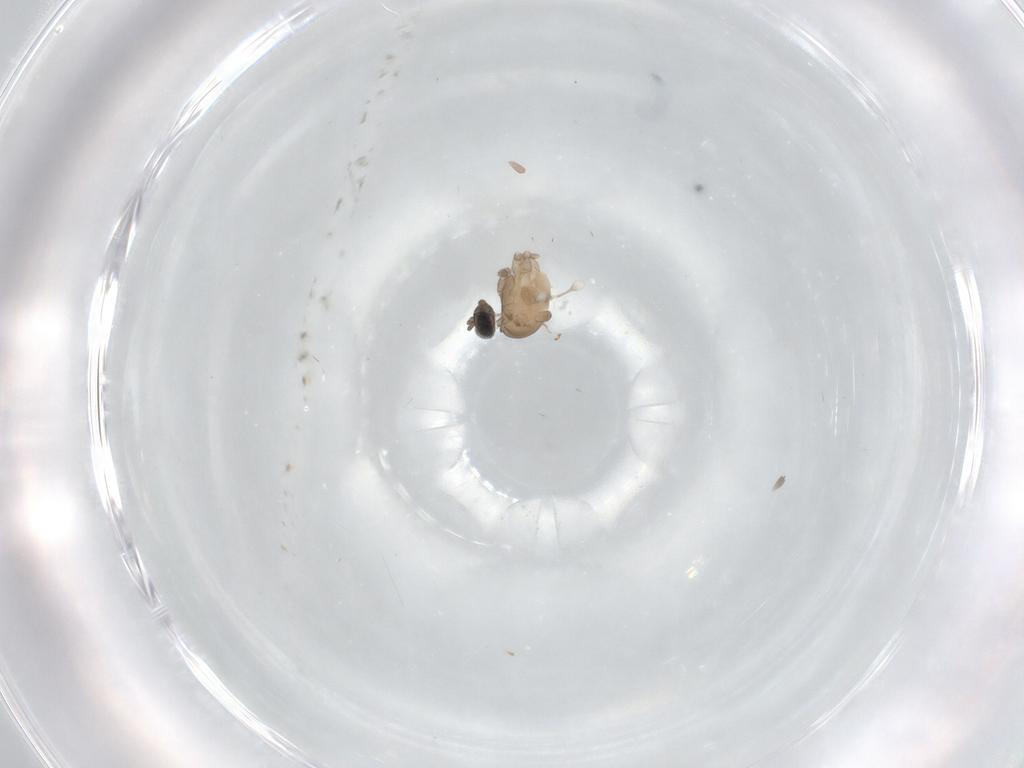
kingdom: Animalia
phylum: Arthropoda
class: Insecta
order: Diptera
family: Cecidomyiidae
